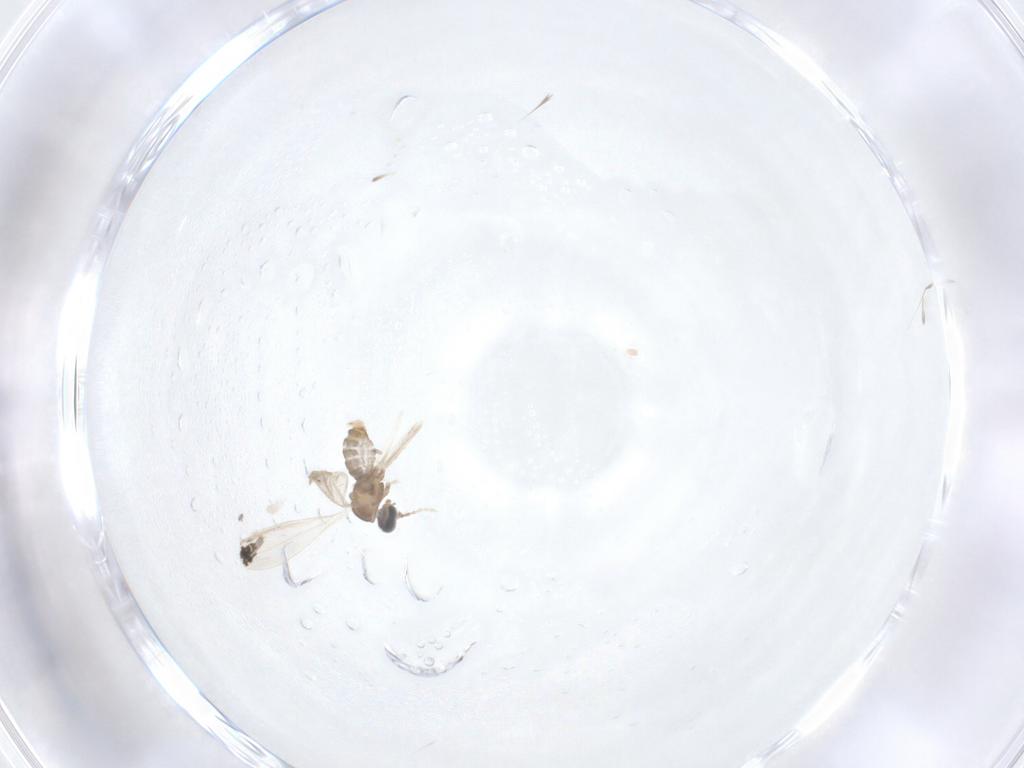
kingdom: Animalia
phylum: Arthropoda
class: Insecta
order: Diptera
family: Cecidomyiidae
